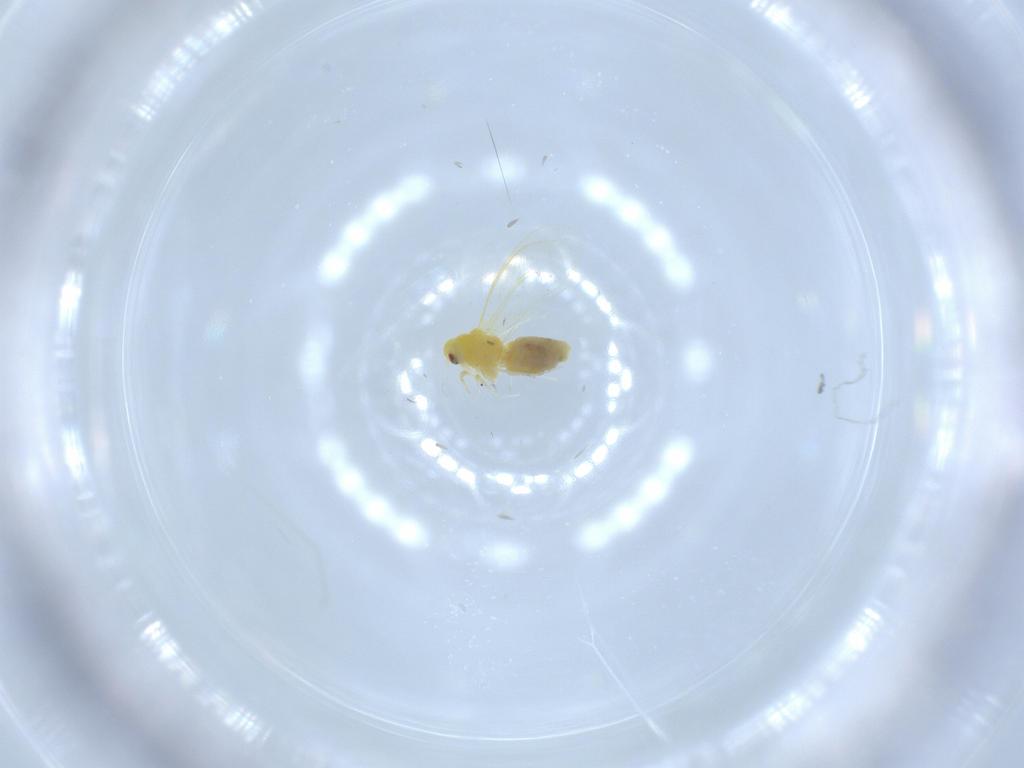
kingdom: Animalia
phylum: Arthropoda
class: Insecta
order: Hemiptera
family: Aleyrodidae
